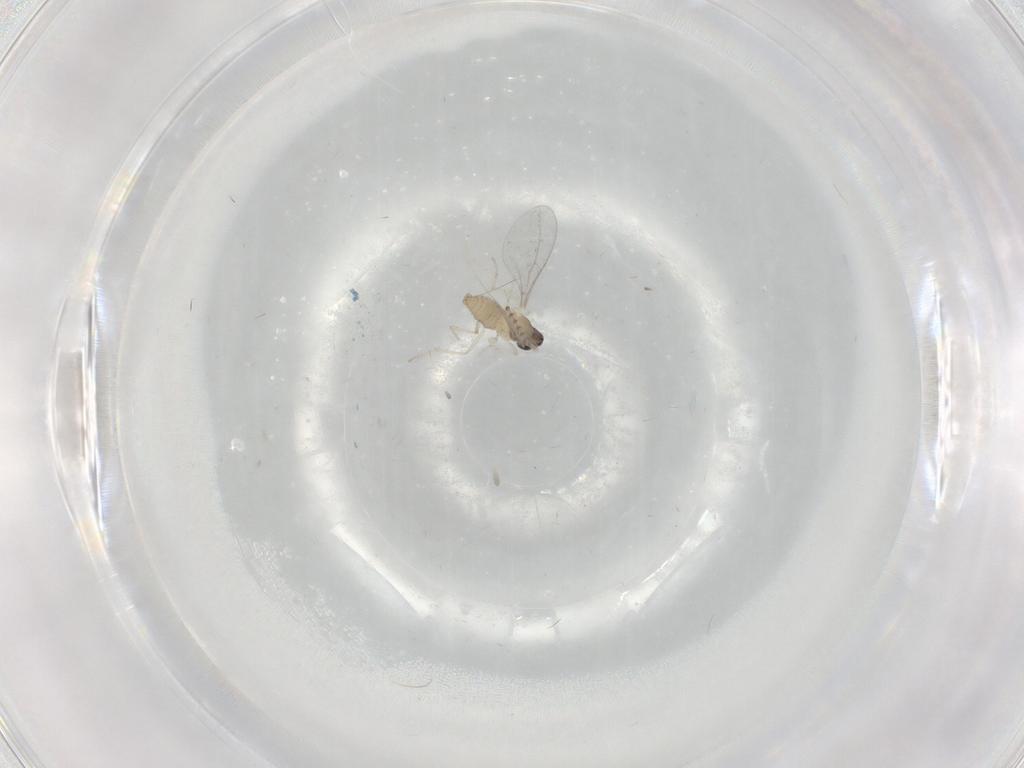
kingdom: Animalia
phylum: Arthropoda
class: Insecta
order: Diptera
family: Cecidomyiidae
